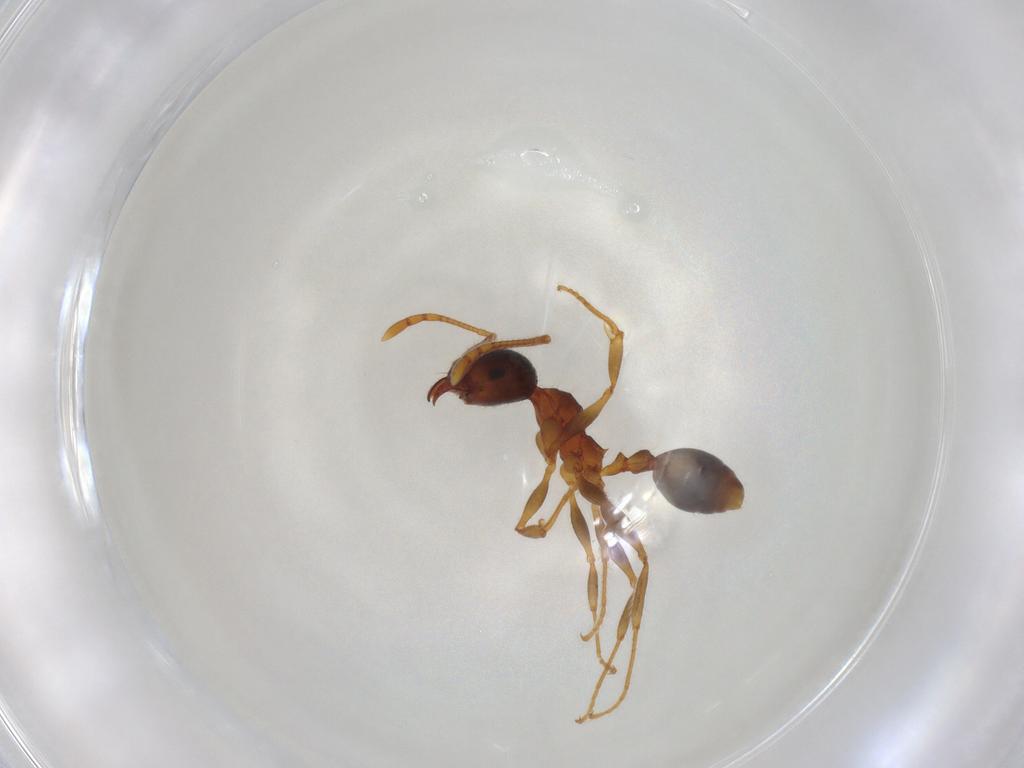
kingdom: Animalia
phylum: Arthropoda
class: Insecta
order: Hymenoptera
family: Formicidae
